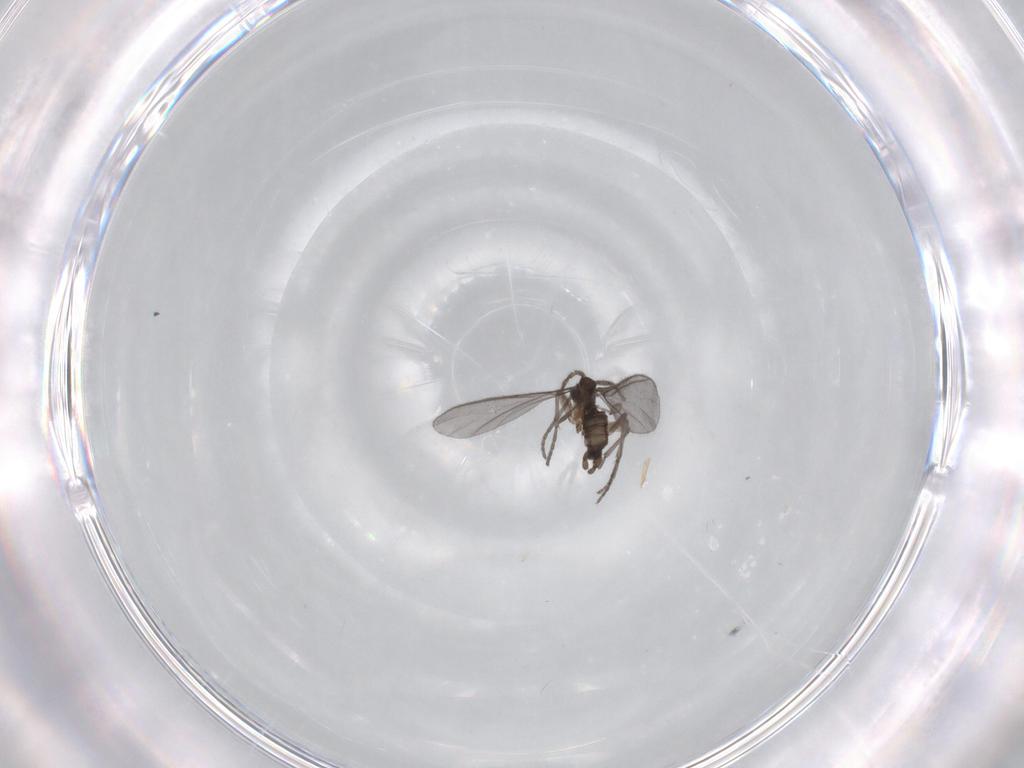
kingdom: Animalia
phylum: Arthropoda
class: Insecta
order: Diptera
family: Sciaridae
